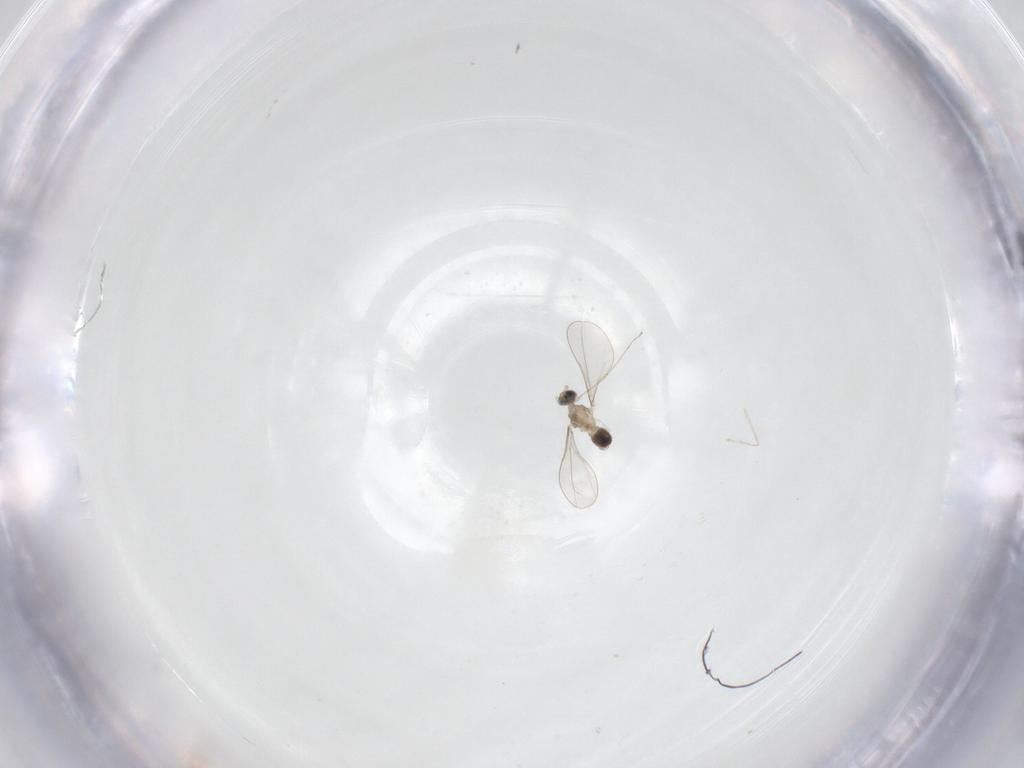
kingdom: Animalia
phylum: Arthropoda
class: Insecta
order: Diptera
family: Cecidomyiidae
